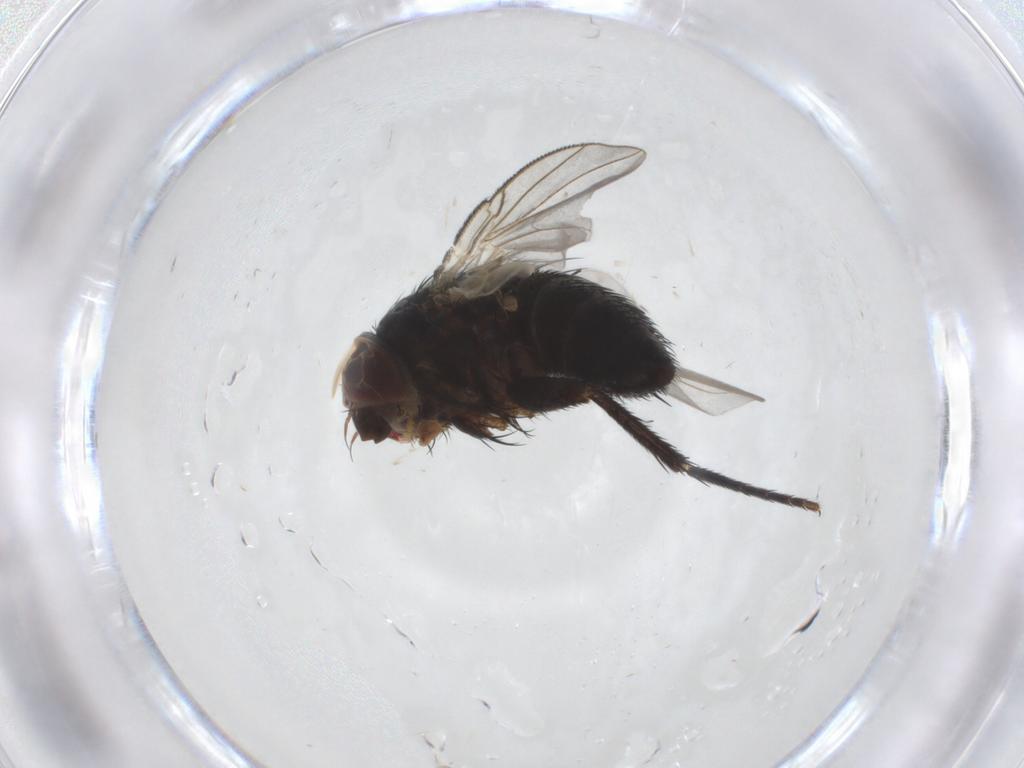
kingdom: Animalia
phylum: Arthropoda
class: Insecta
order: Diptera
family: Tachinidae
